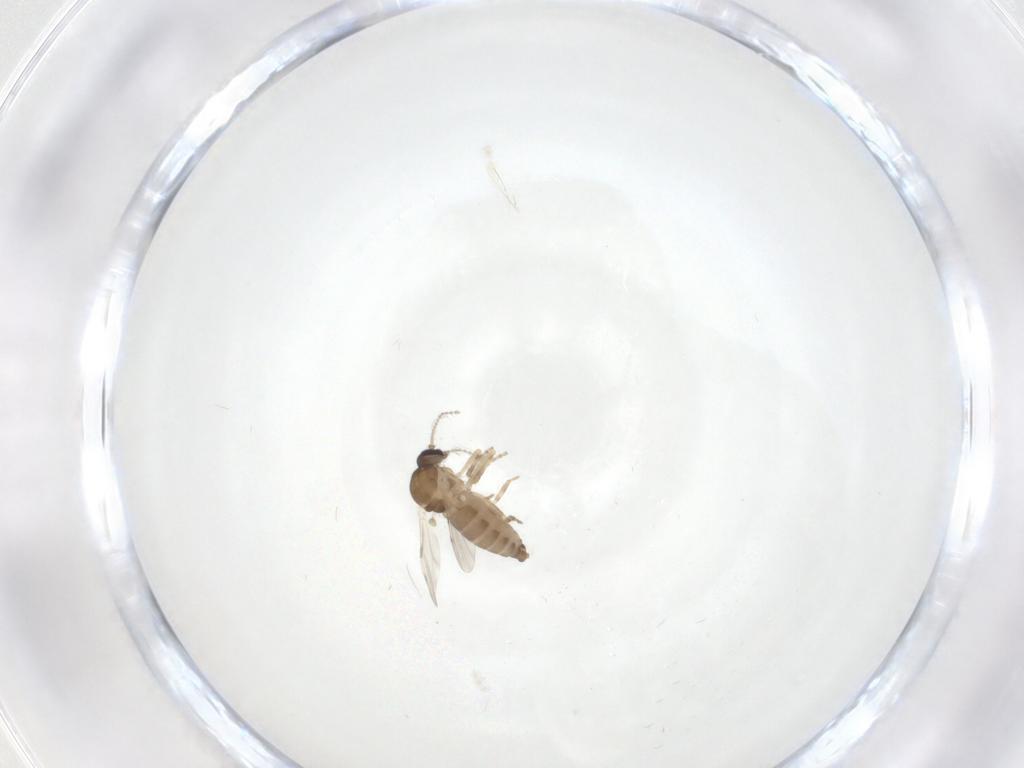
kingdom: Animalia
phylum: Arthropoda
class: Insecta
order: Diptera
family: Ceratopogonidae
